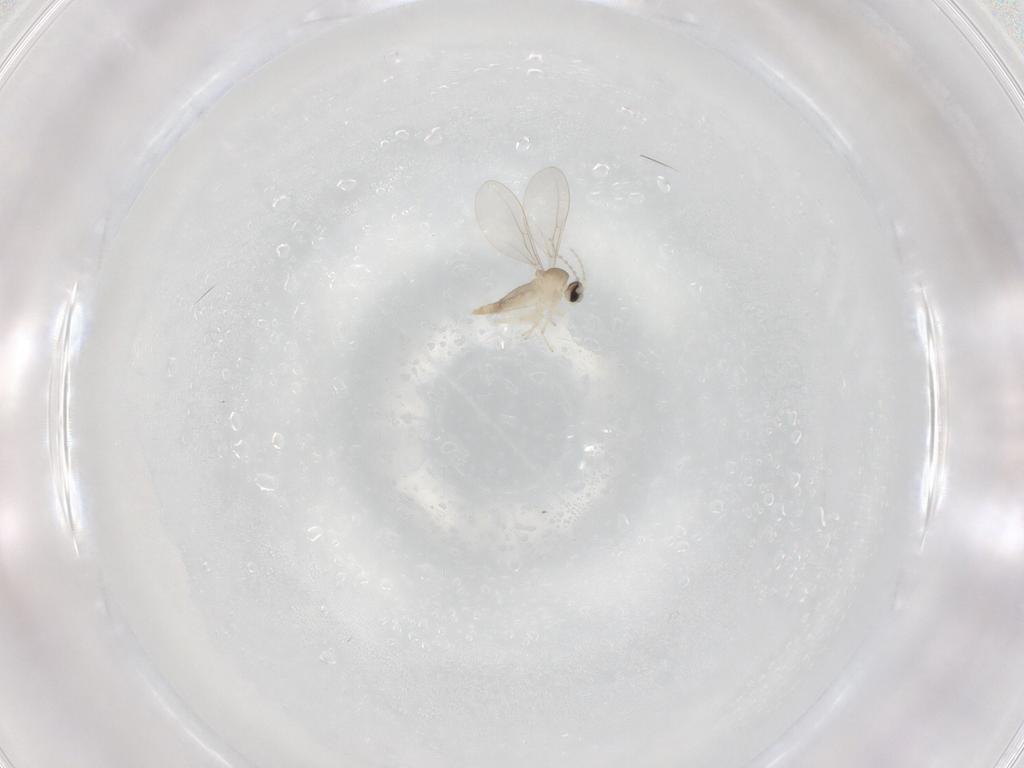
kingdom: Animalia
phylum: Arthropoda
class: Insecta
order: Diptera
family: Cecidomyiidae
